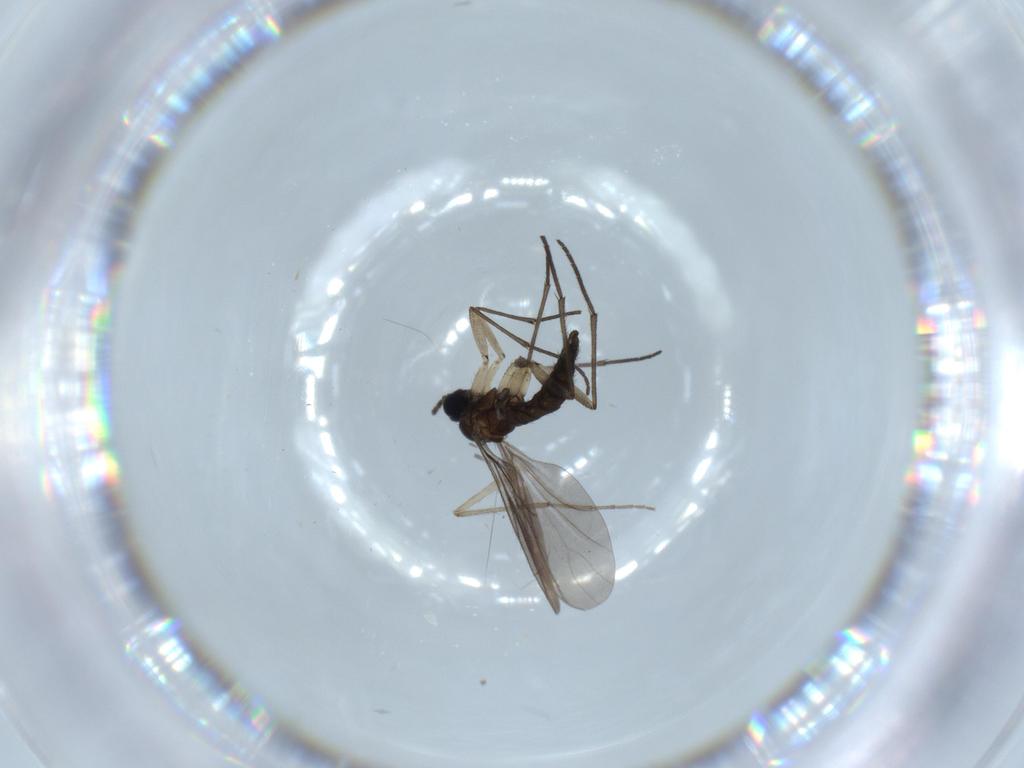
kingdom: Animalia
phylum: Arthropoda
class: Insecta
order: Diptera
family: Sciaridae
